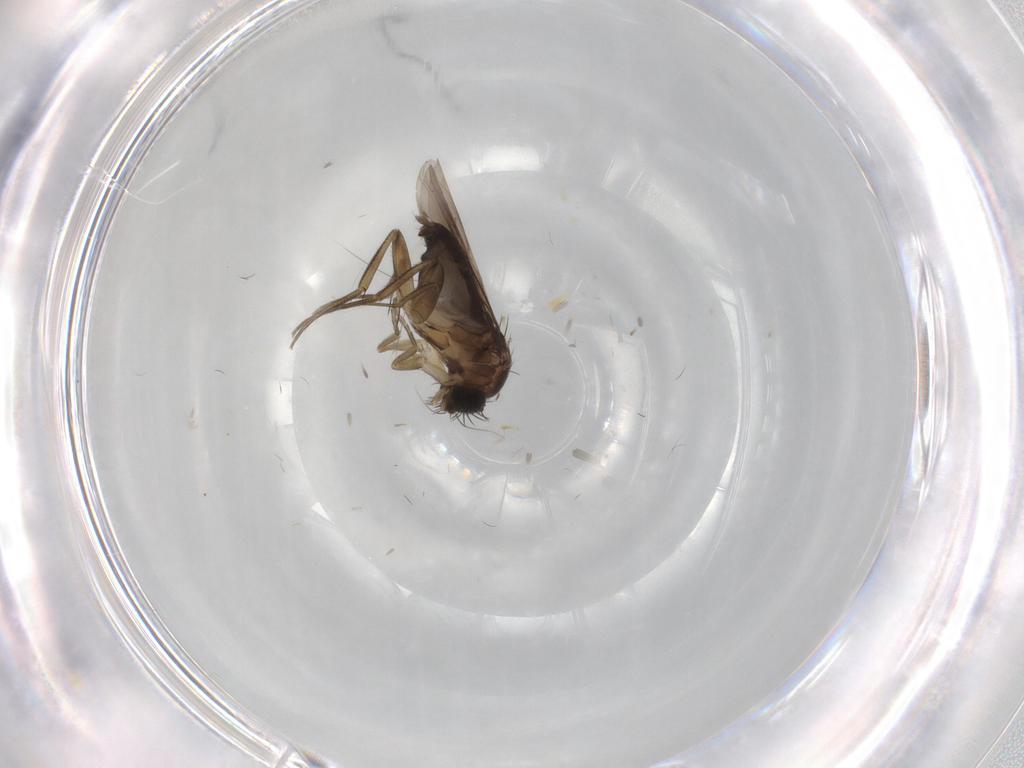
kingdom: Animalia
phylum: Arthropoda
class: Insecta
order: Diptera
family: Phoridae
